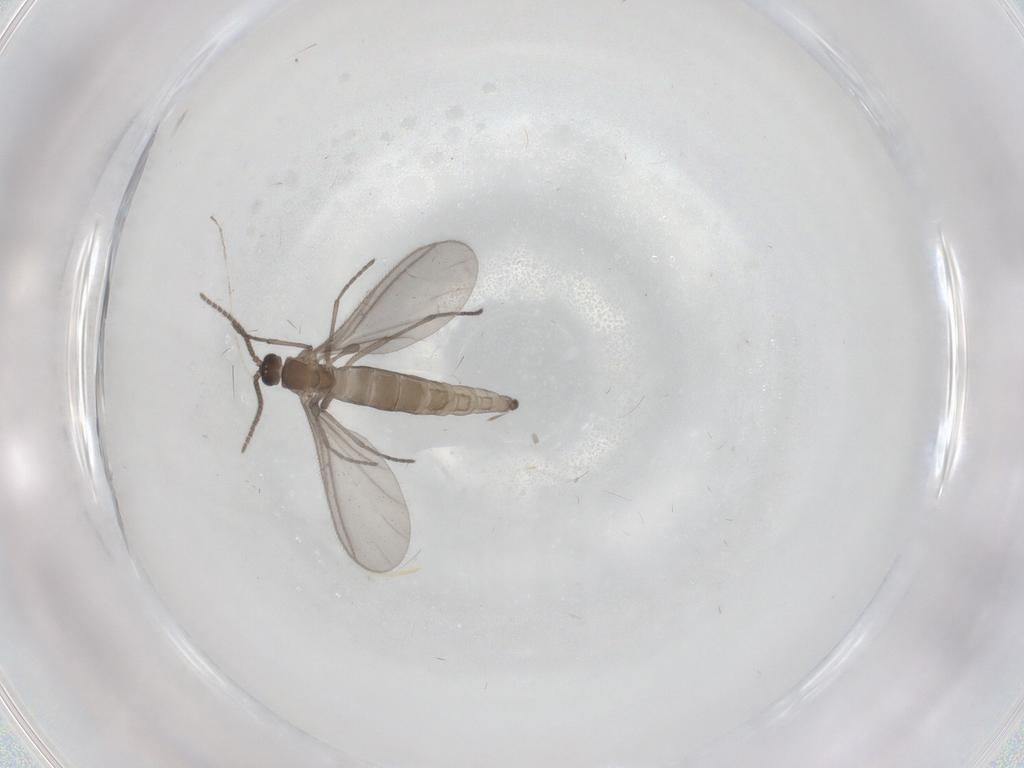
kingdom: Animalia
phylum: Arthropoda
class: Insecta
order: Diptera
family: Sciaridae
